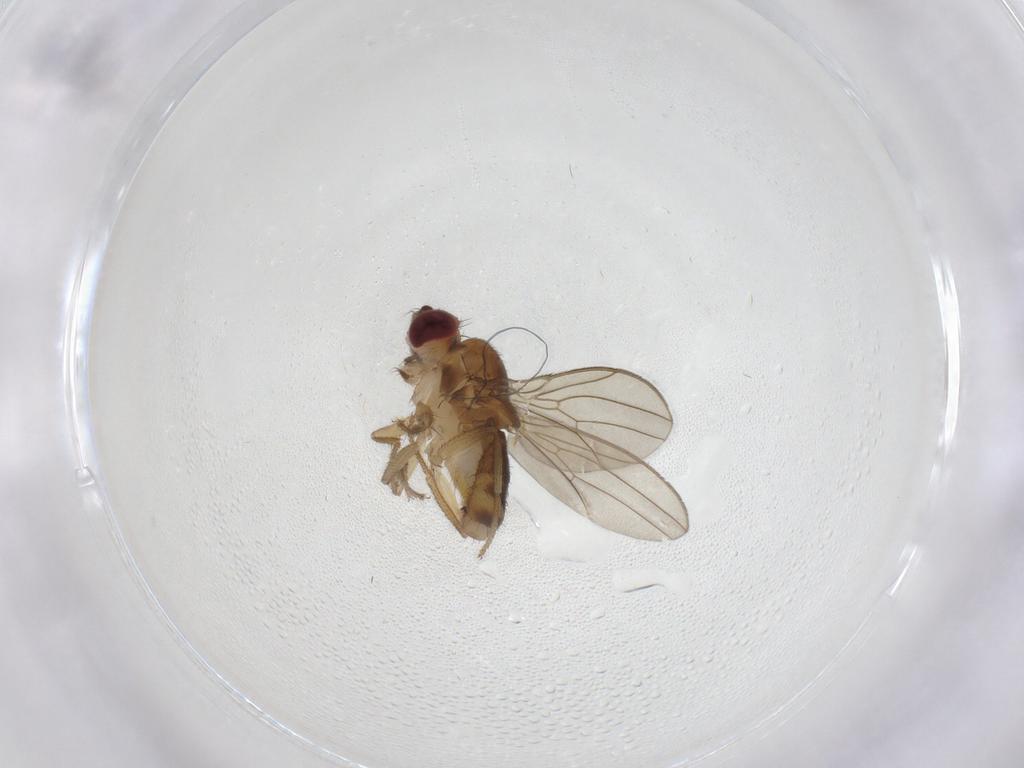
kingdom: Animalia
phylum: Arthropoda
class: Insecta
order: Diptera
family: Drosophilidae
